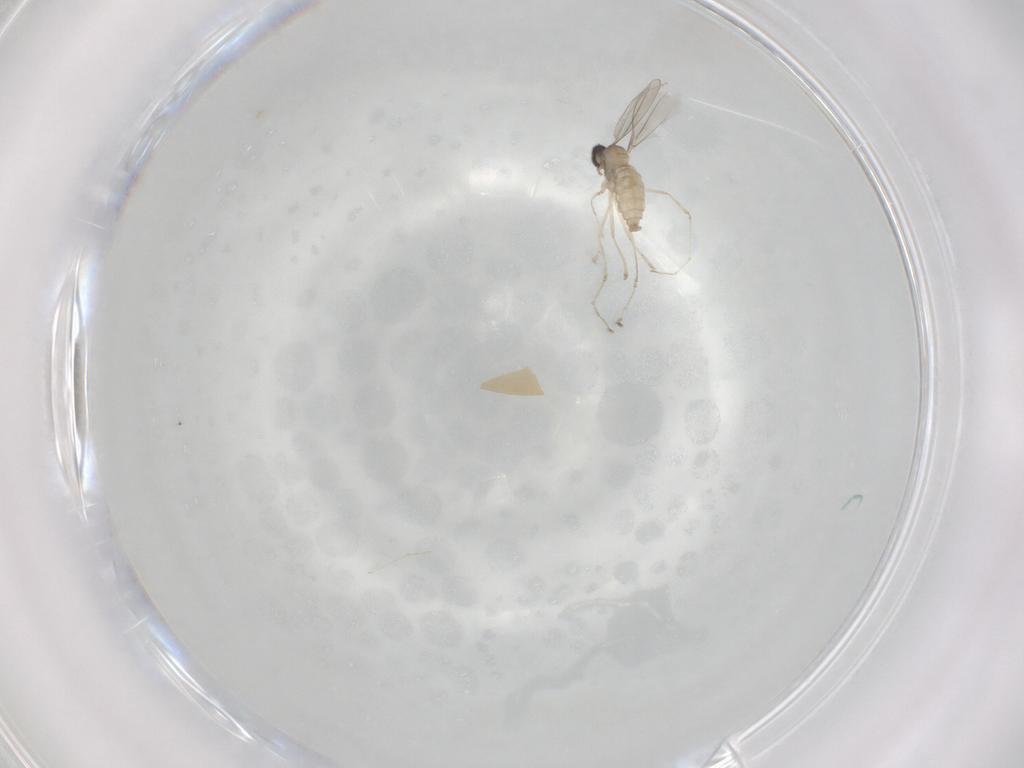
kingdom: Animalia
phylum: Arthropoda
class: Insecta
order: Diptera
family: Cecidomyiidae
